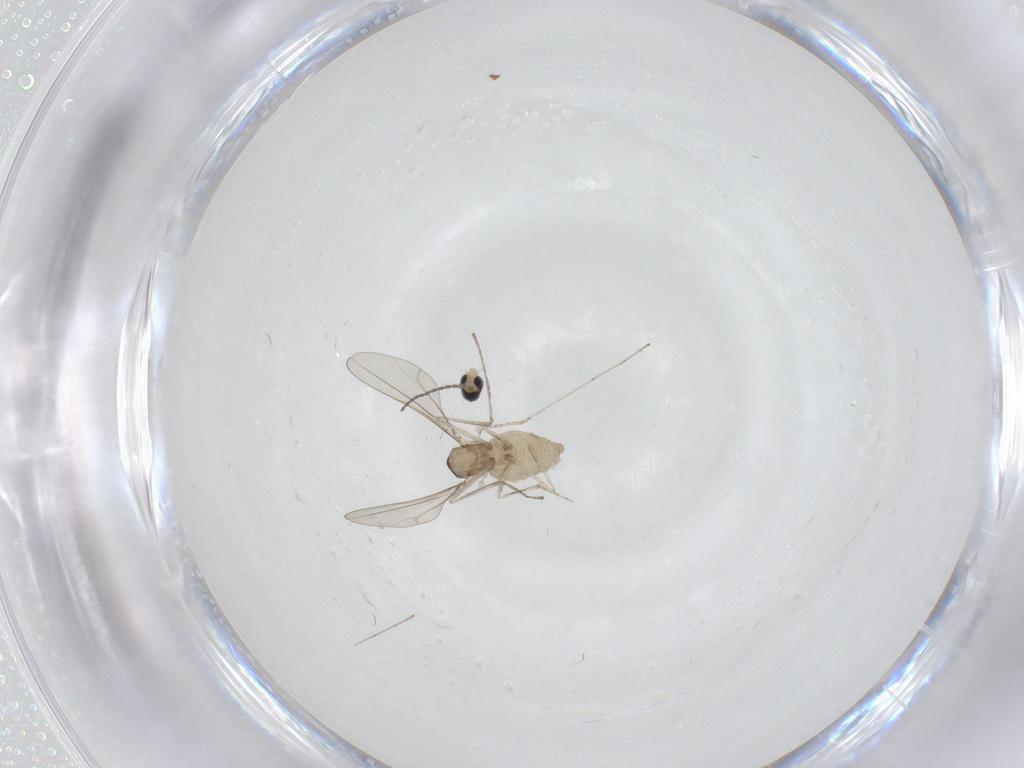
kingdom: Animalia
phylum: Arthropoda
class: Insecta
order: Diptera
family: Cecidomyiidae
